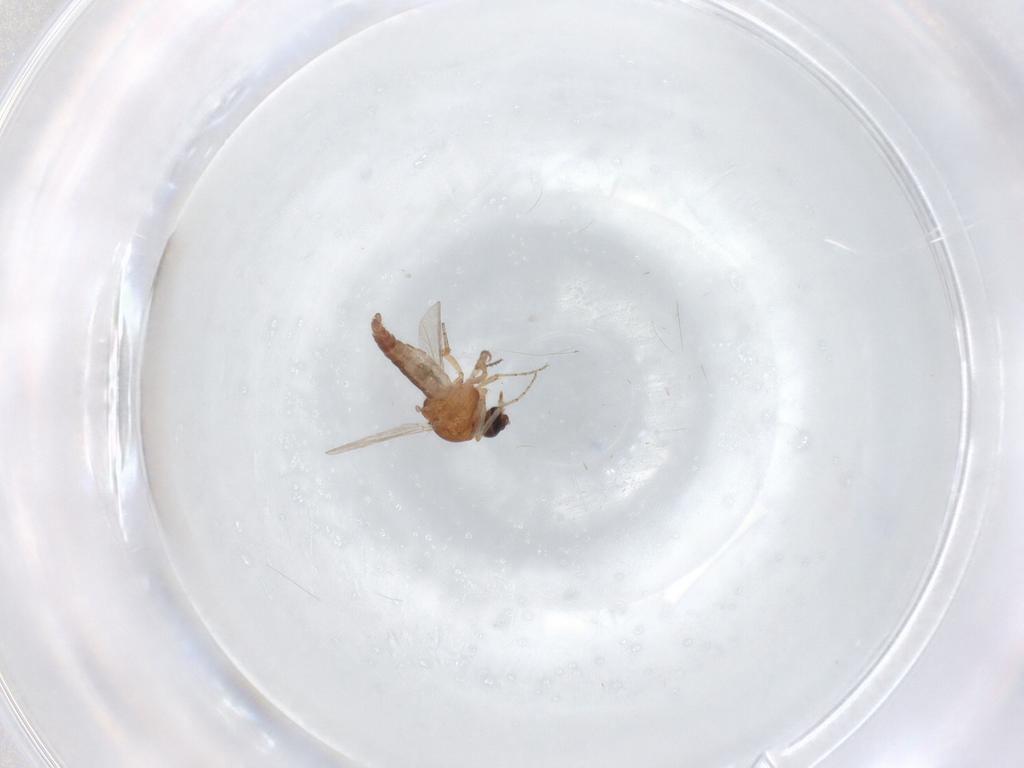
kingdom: Animalia
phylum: Arthropoda
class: Insecta
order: Diptera
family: Ceratopogonidae
